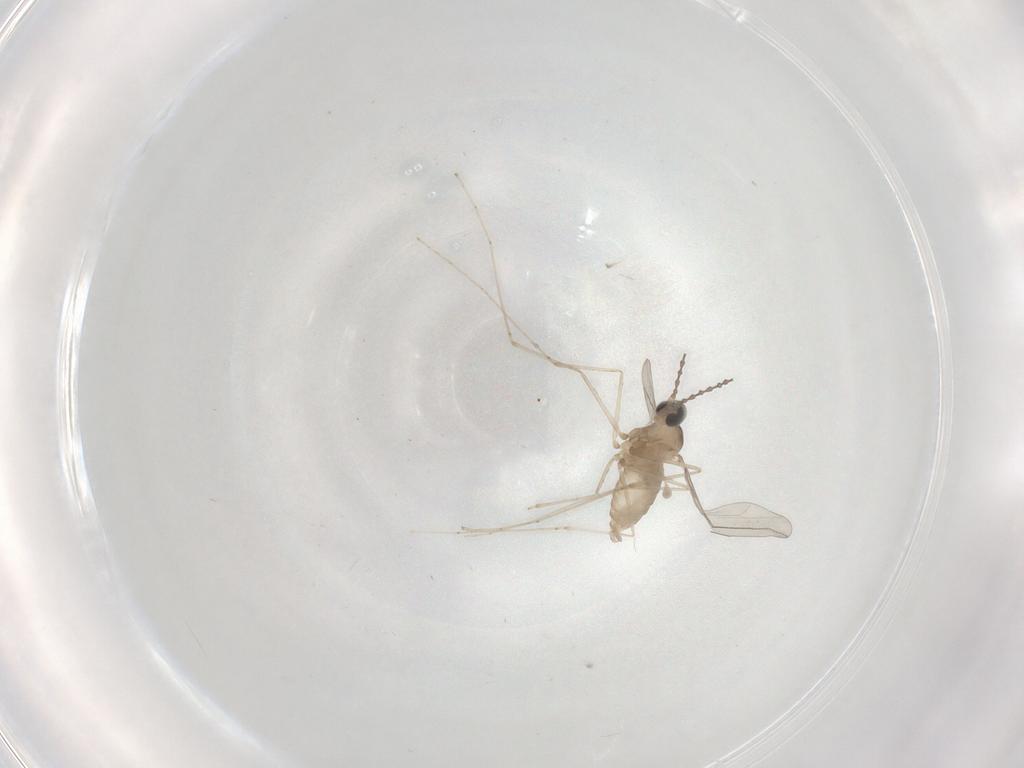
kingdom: Animalia
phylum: Arthropoda
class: Insecta
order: Diptera
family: Cecidomyiidae
